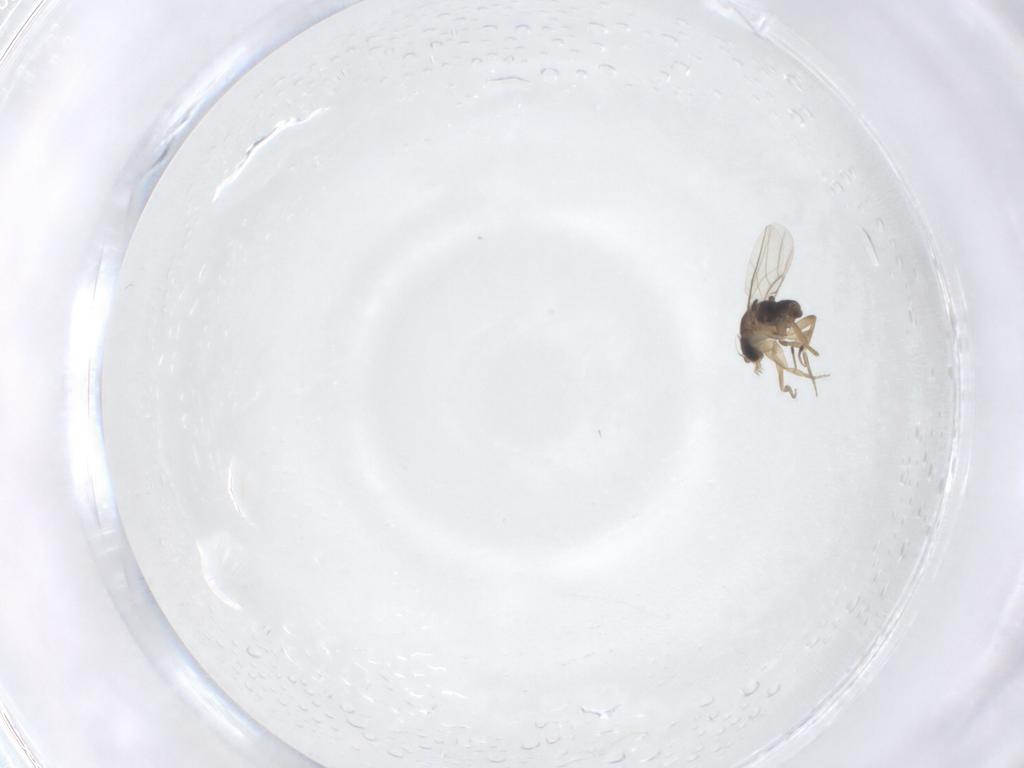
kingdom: Animalia
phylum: Arthropoda
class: Insecta
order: Diptera
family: Phoridae
